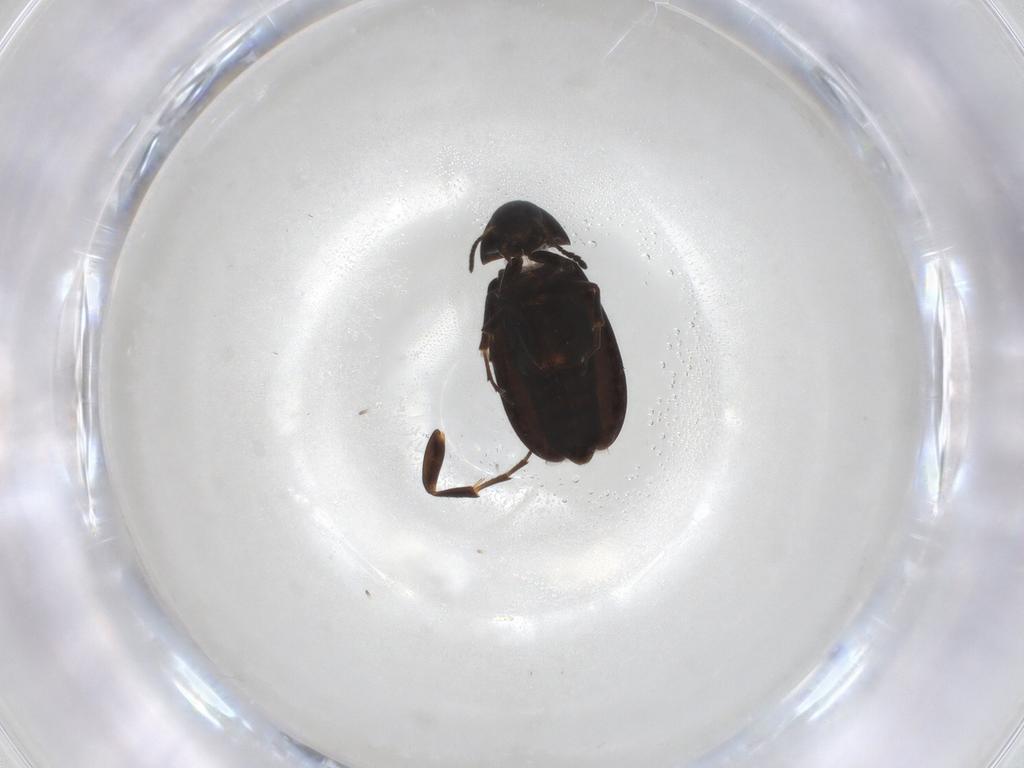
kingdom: Animalia
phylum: Arthropoda
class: Insecta
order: Coleoptera
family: Scraptiidae
